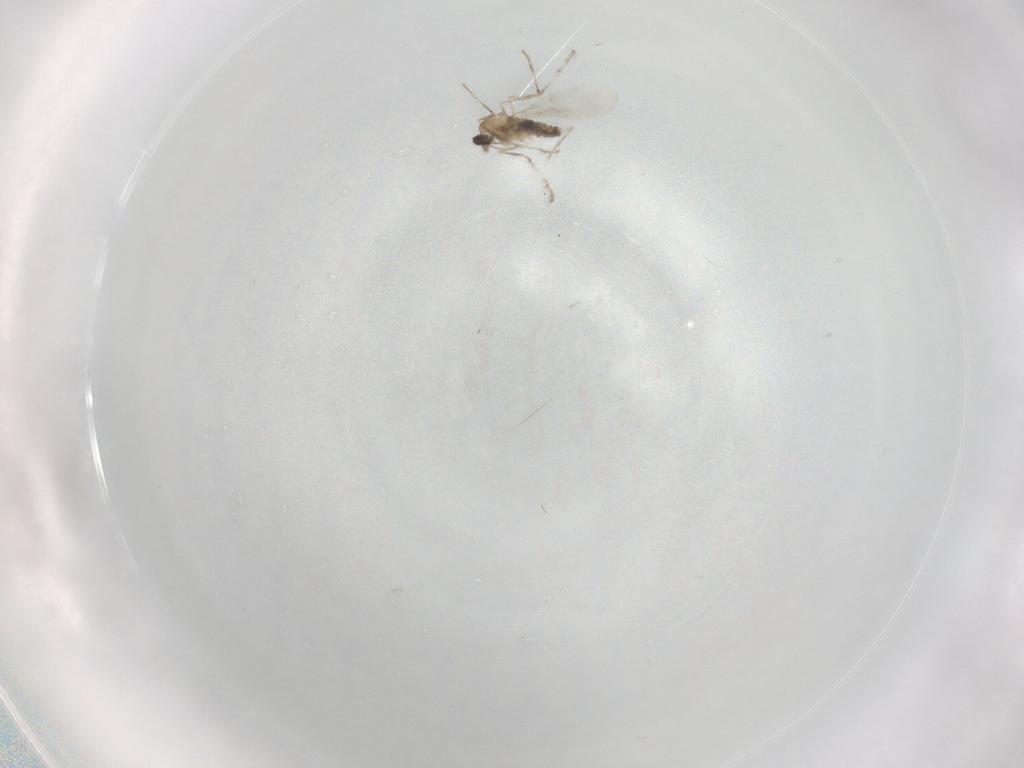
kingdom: Animalia
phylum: Arthropoda
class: Insecta
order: Diptera
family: Cecidomyiidae
